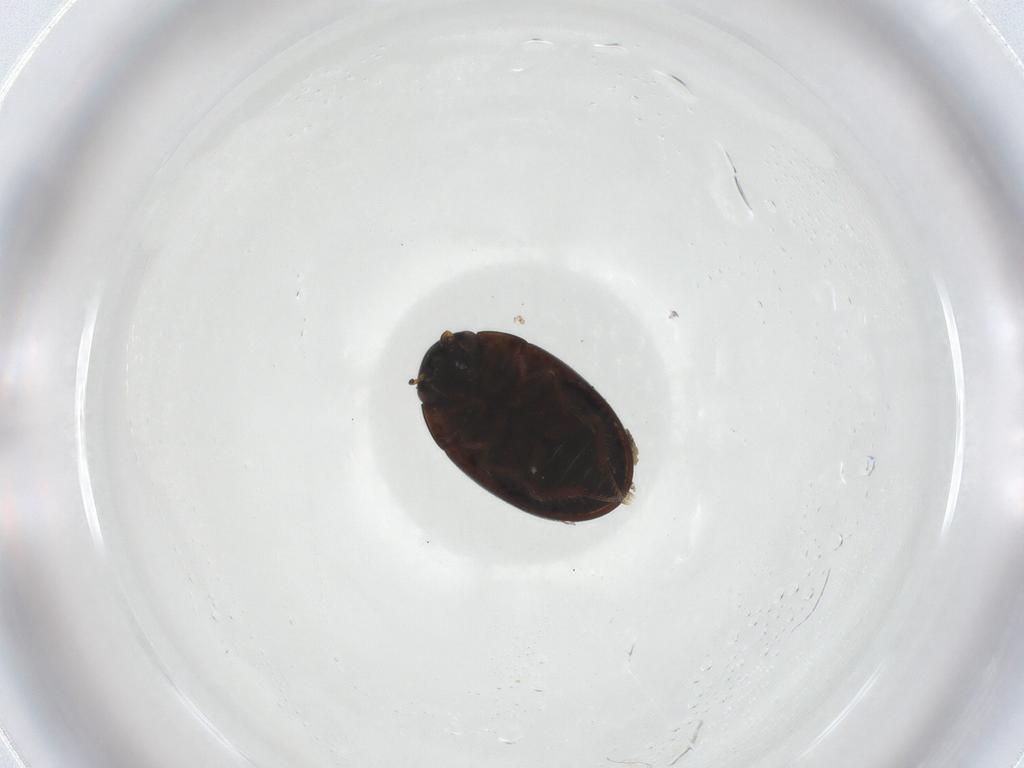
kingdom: Animalia
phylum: Arthropoda
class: Insecta
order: Coleoptera
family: Hydrophilidae
